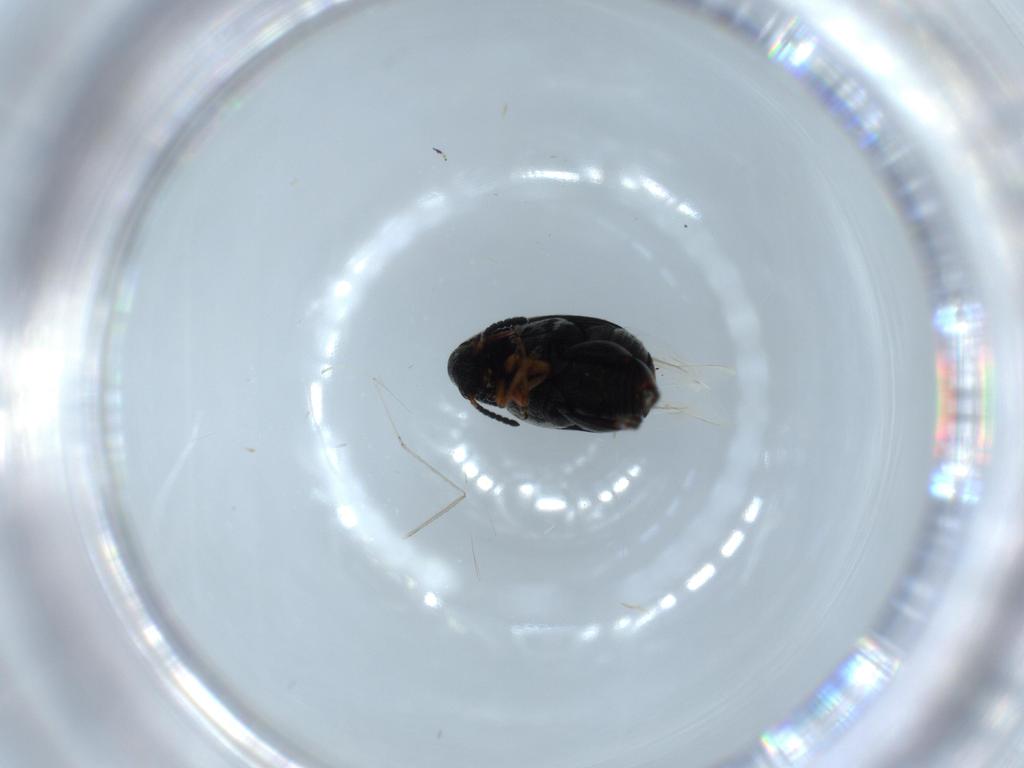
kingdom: Animalia
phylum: Arthropoda
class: Insecta
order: Coleoptera
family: Chrysomelidae
